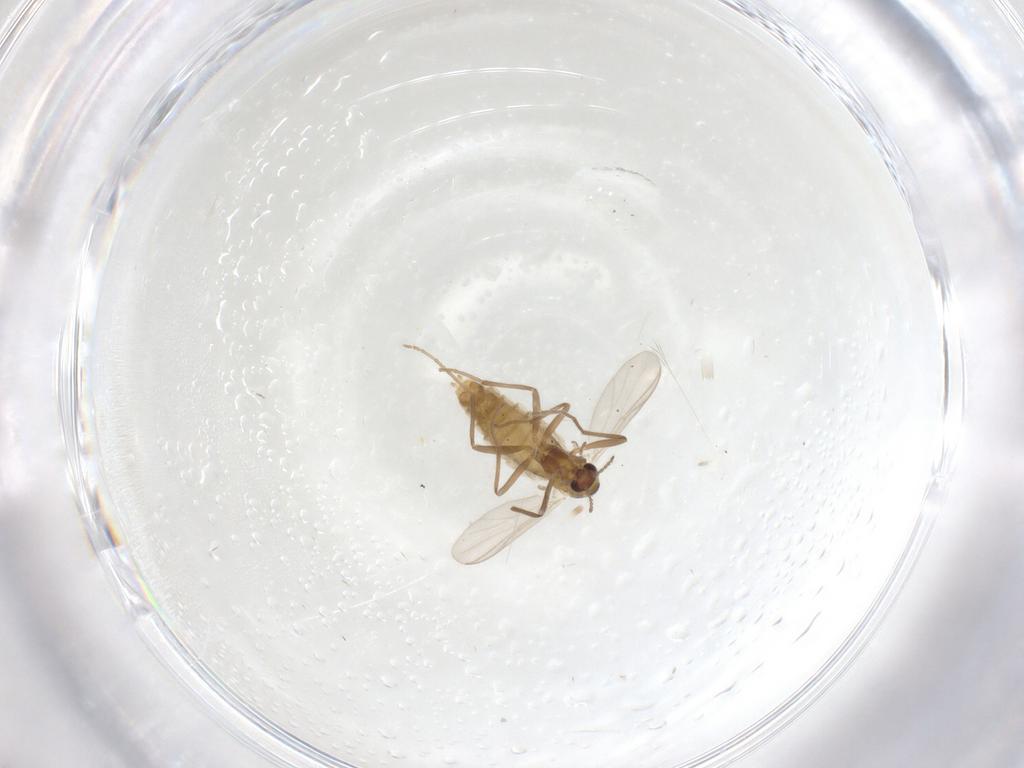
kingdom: Animalia
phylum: Arthropoda
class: Insecta
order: Diptera
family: Chironomidae
